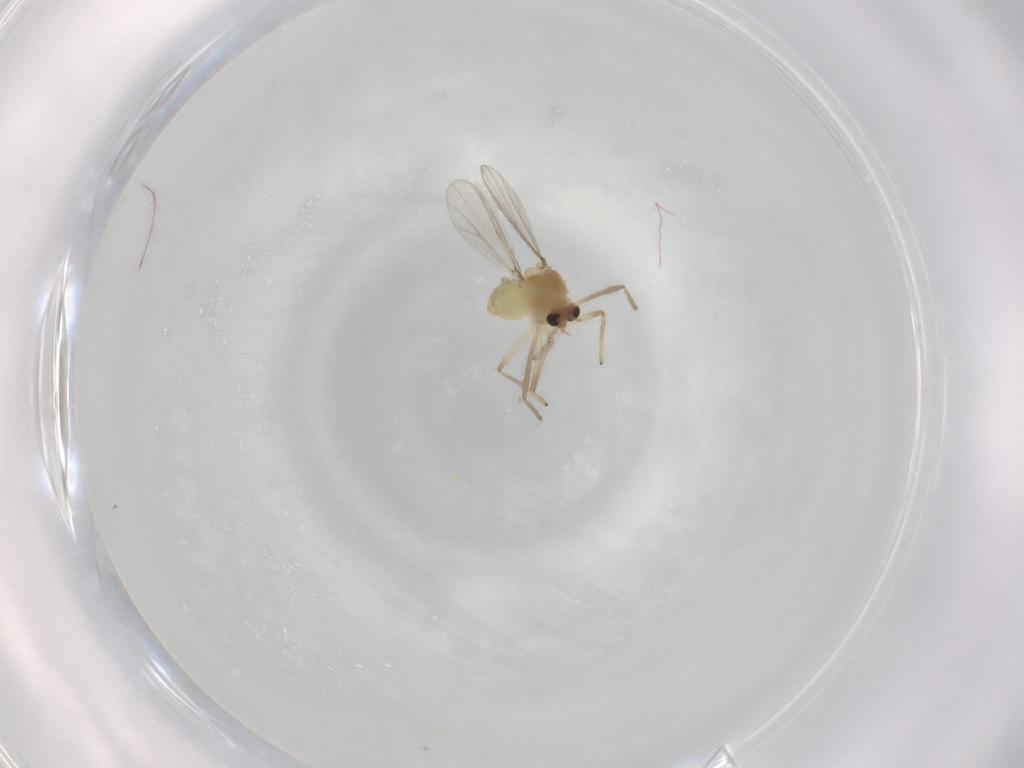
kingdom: Animalia
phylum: Arthropoda
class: Insecta
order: Diptera
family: Chironomidae
